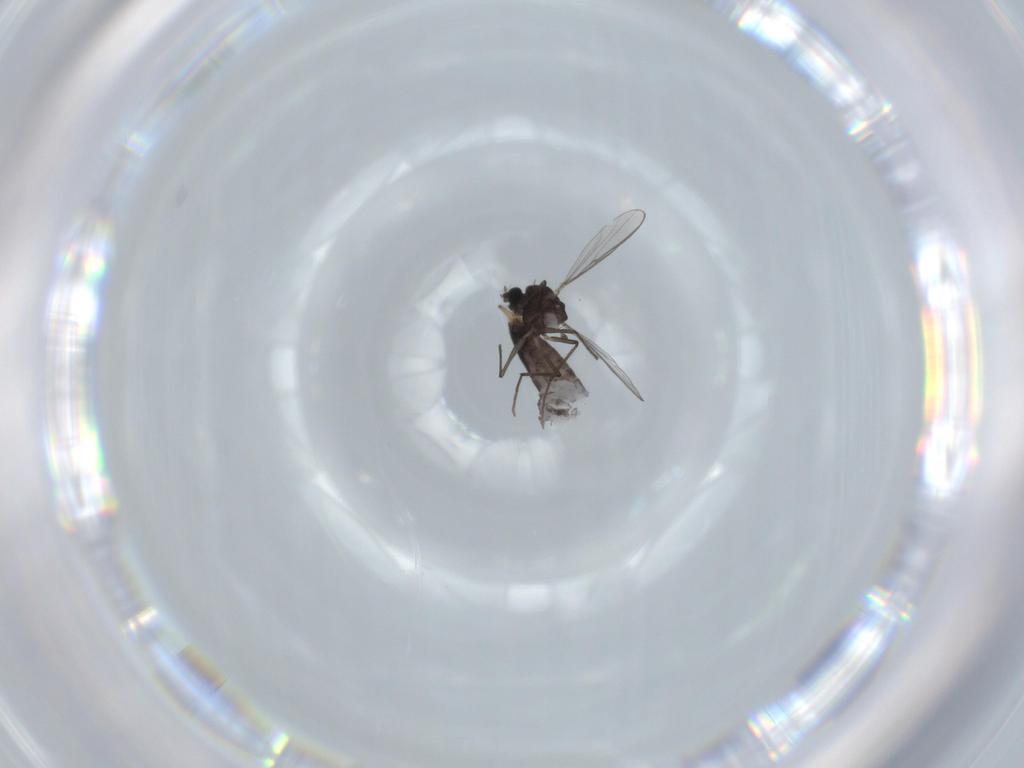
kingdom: Animalia
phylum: Arthropoda
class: Insecta
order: Diptera
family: Chironomidae
